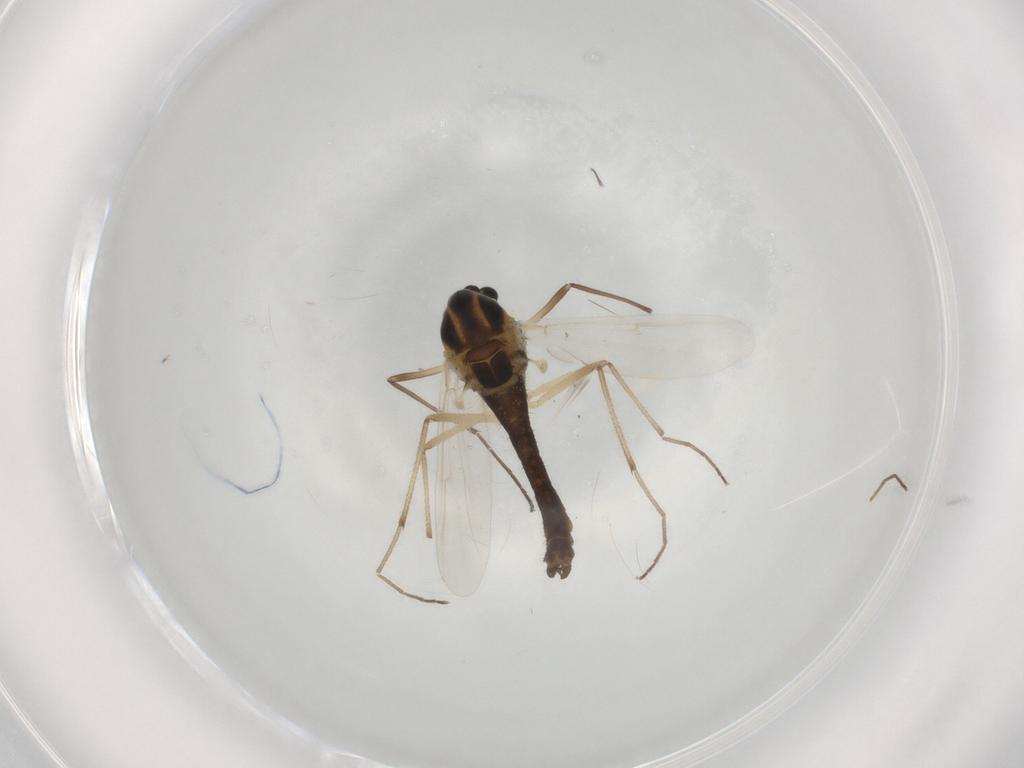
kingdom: Animalia
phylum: Arthropoda
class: Insecta
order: Diptera
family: Chironomidae
